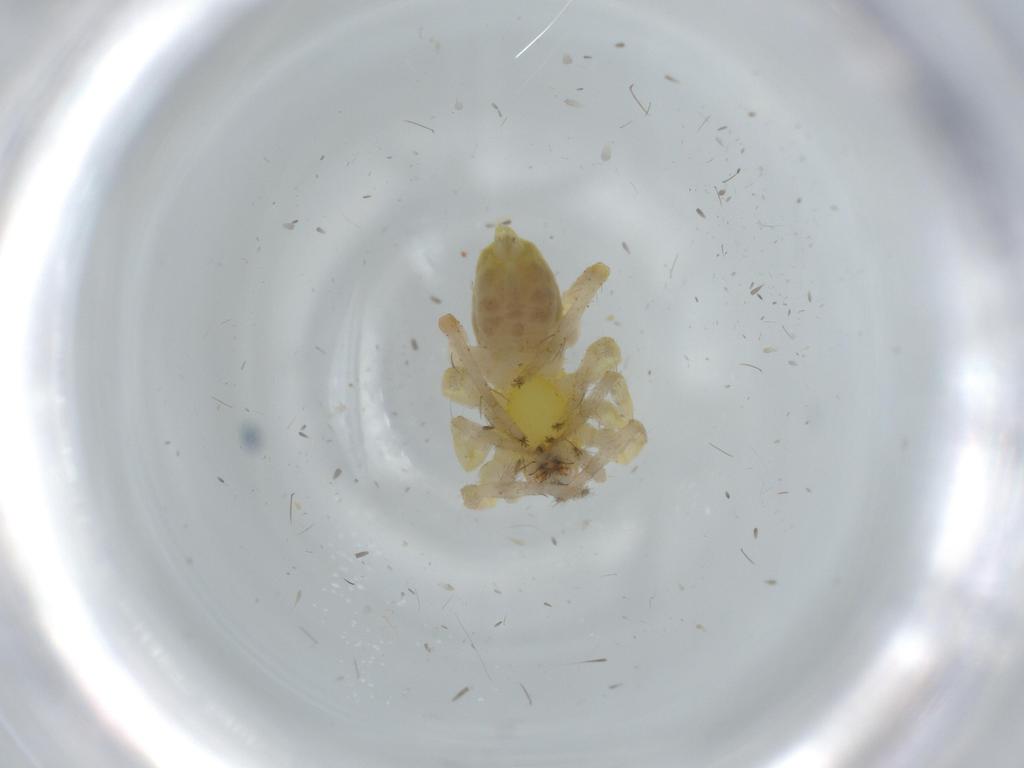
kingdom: Animalia
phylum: Arthropoda
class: Arachnida
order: Araneae
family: Agelenidae
